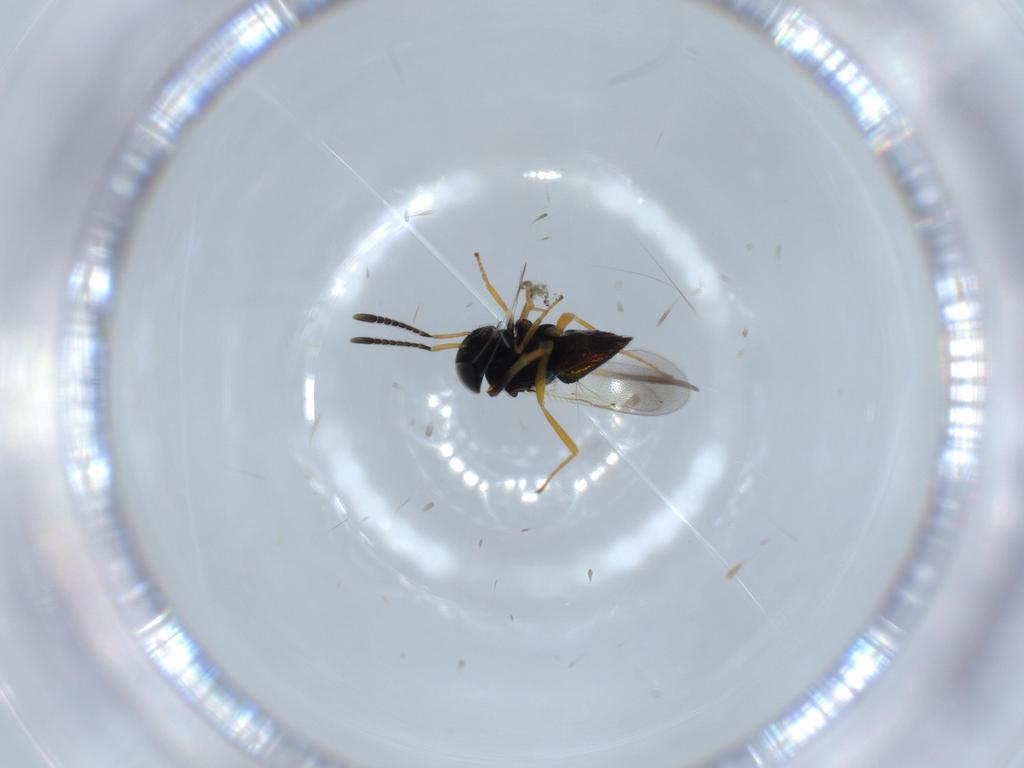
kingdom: Animalia
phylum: Arthropoda
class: Insecta
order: Hymenoptera
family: Encyrtidae
